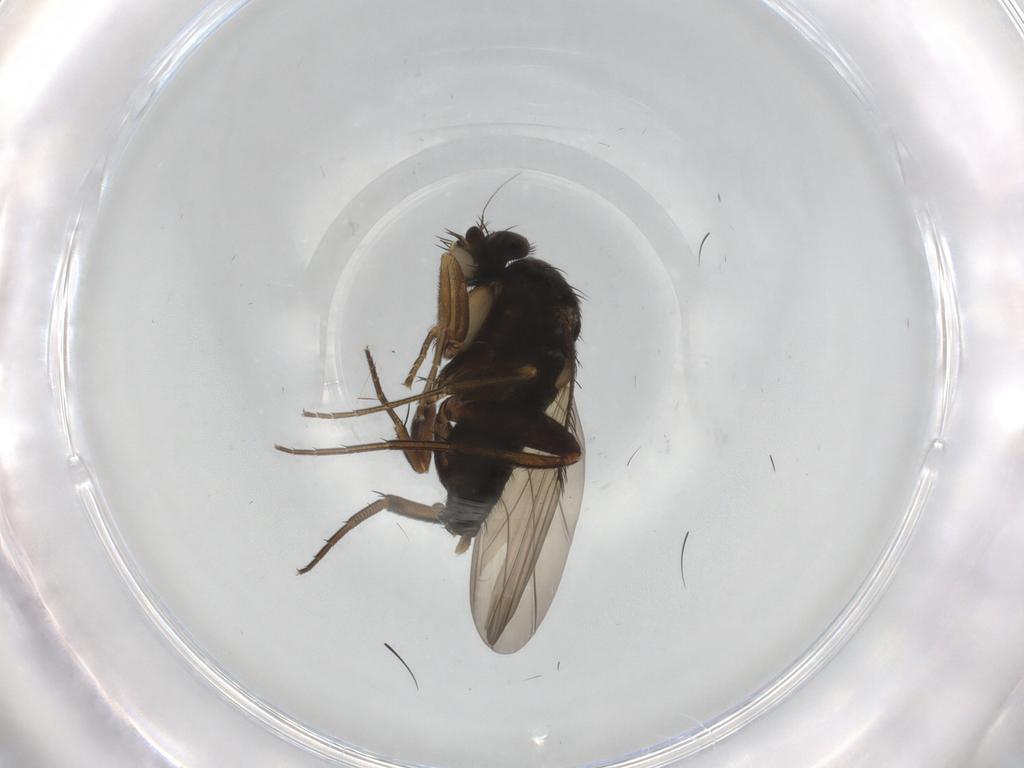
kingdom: Animalia
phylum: Arthropoda
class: Insecta
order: Diptera
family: Phoridae
